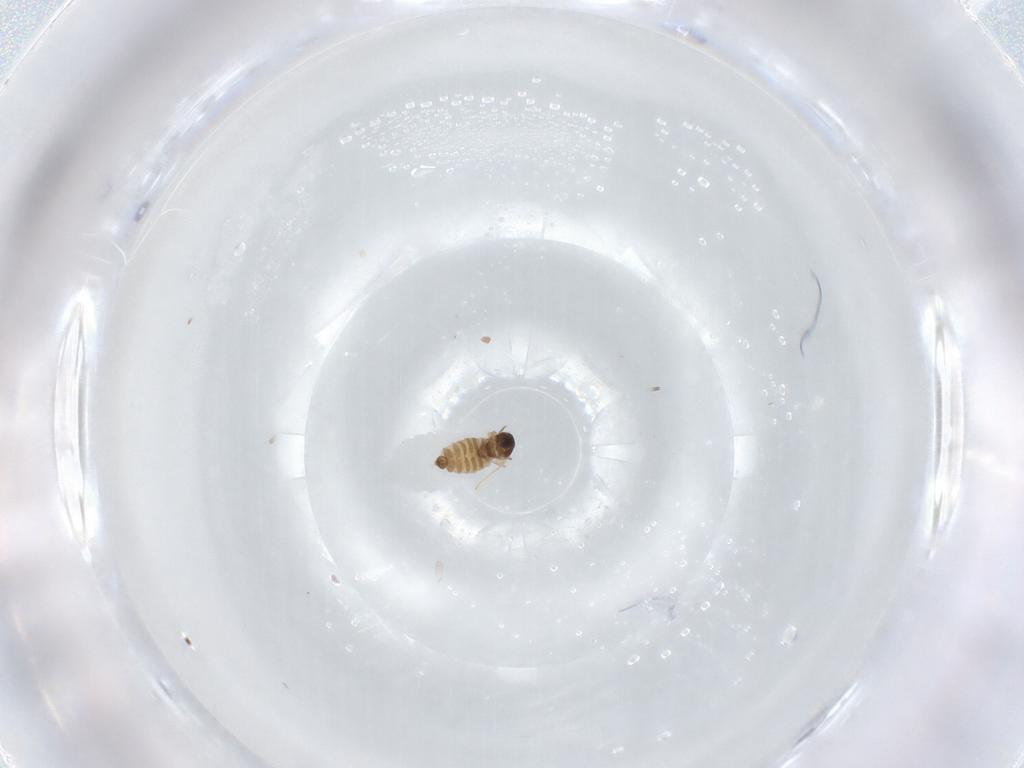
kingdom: Animalia
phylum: Arthropoda
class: Insecta
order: Diptera
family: Cecidomyiidae
